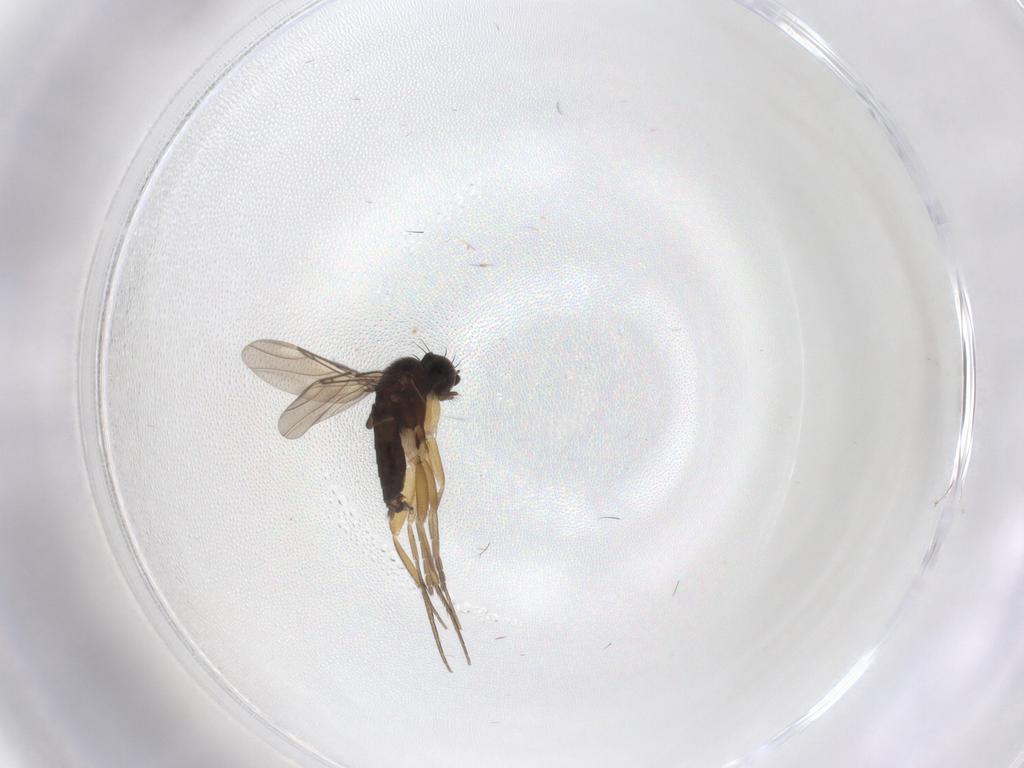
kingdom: Animalia
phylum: Arthropoda
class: Insecta
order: Diptera
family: Cecidomyiidae
